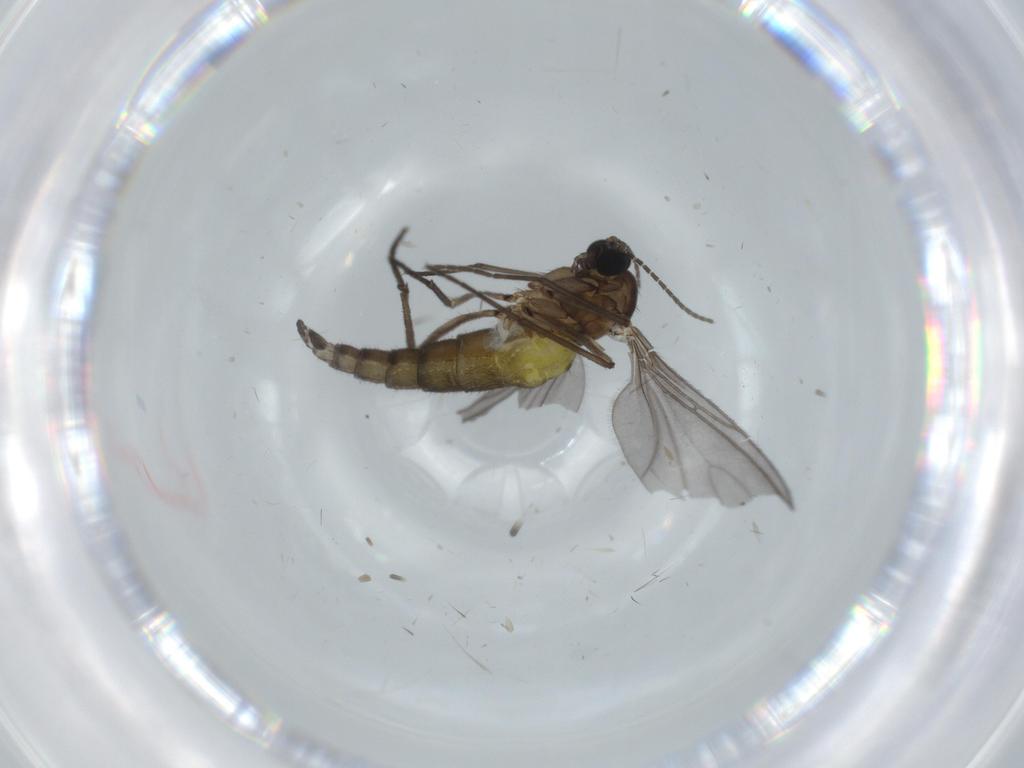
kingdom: Animalia
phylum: Arthropoda
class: Insecta
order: Diptera
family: Sciaridae
